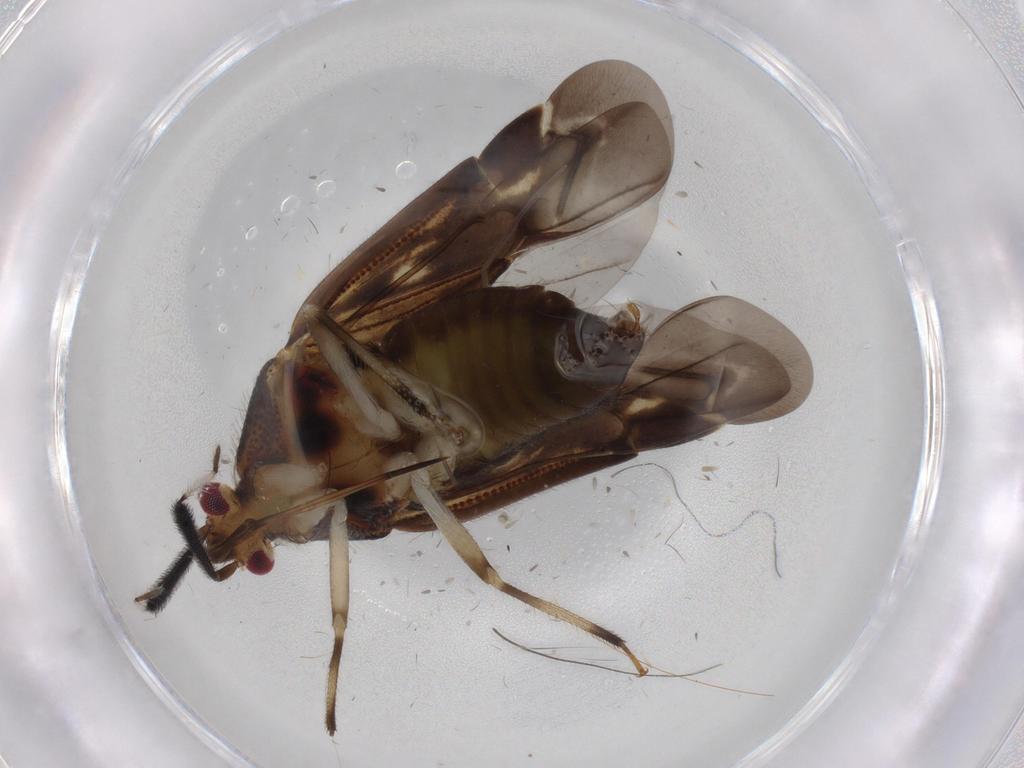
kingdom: Animalia
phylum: Arthropoda
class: Insecta
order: Hemiptera
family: Miridae
